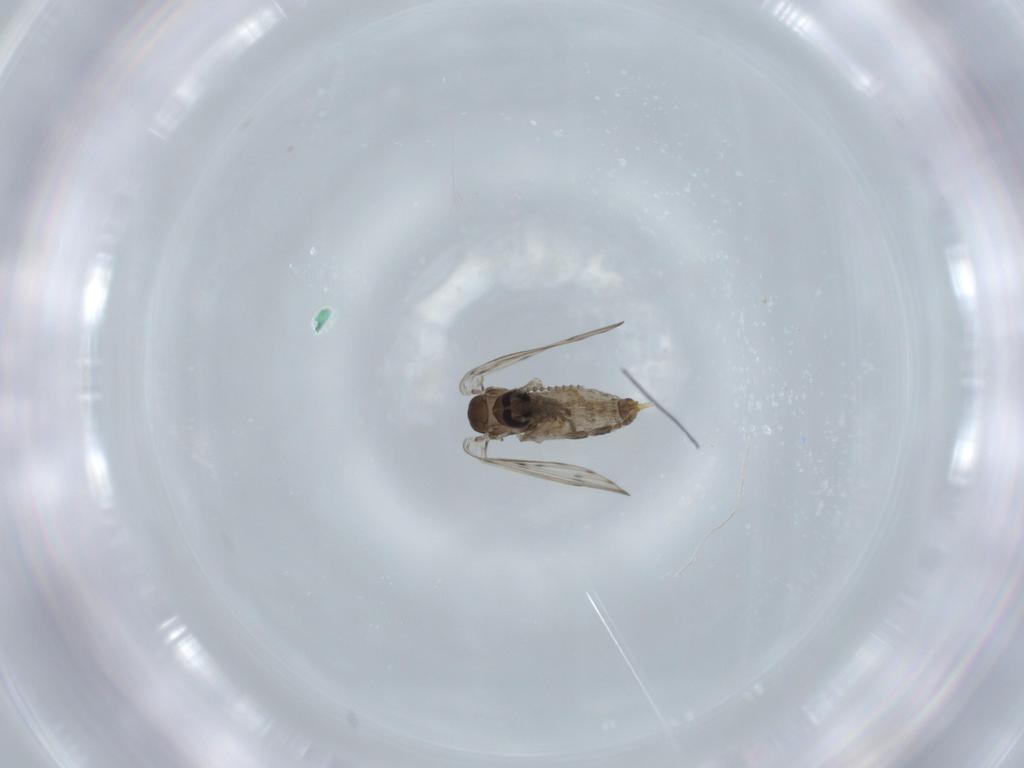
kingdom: Animalia
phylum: Arthropoda
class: Insecta
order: Diptera
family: Psychodidae
